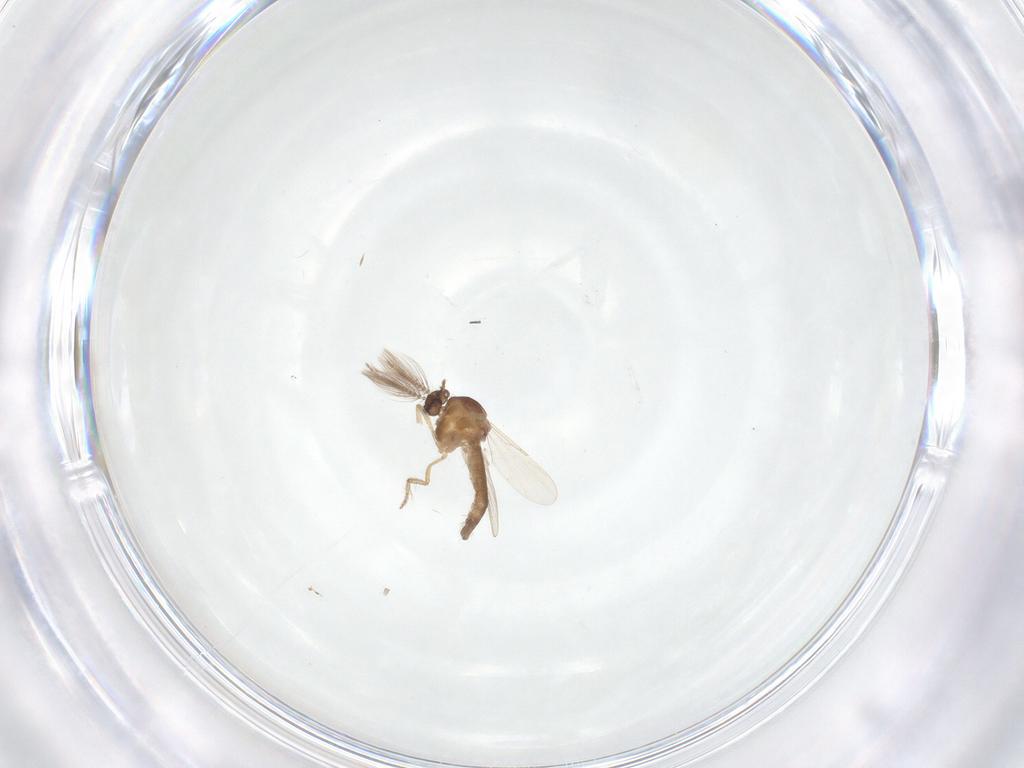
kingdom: Animalia
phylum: Arthropoda
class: Insecta
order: Diptera
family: Ceratopogonidae
